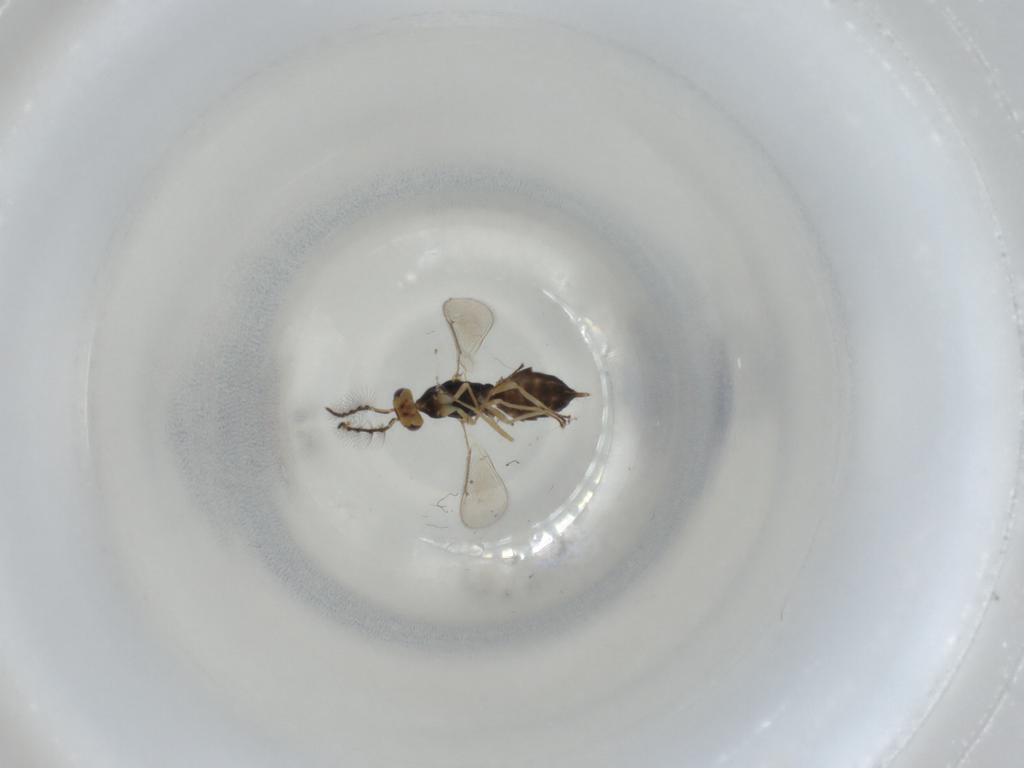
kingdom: Animalia
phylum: Arthropoda
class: Insecta
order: Hymenoptera
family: Eulophidae
